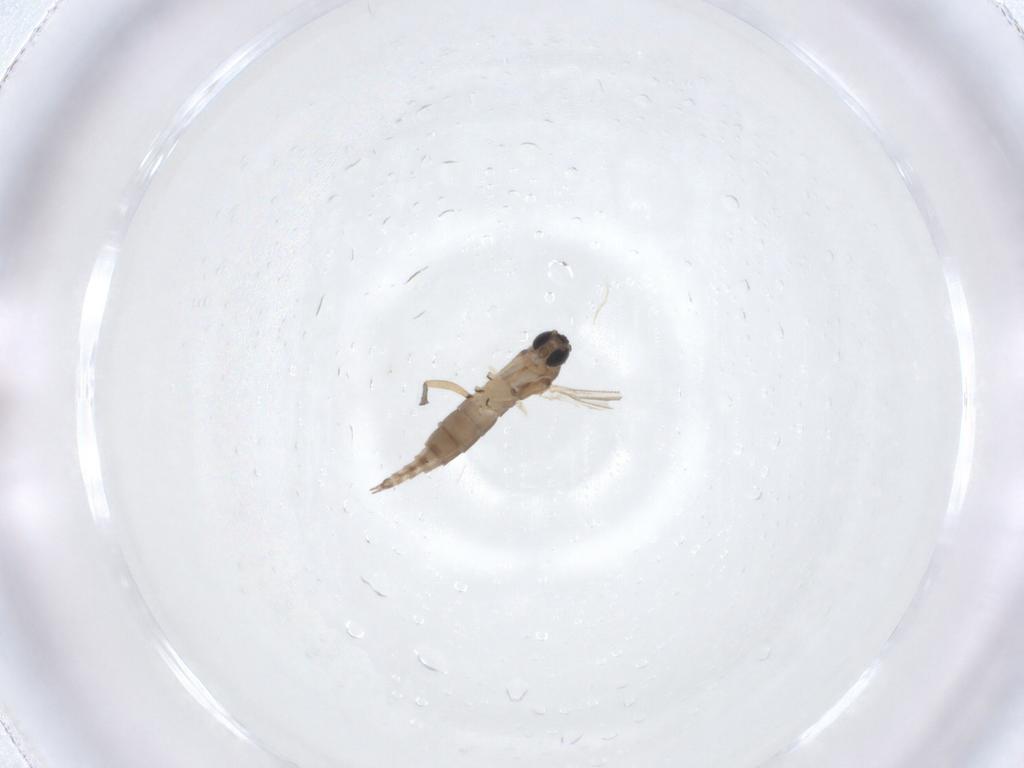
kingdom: Animalia
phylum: Arthropoda
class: Insecta
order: Diptera
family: Sciaridae
